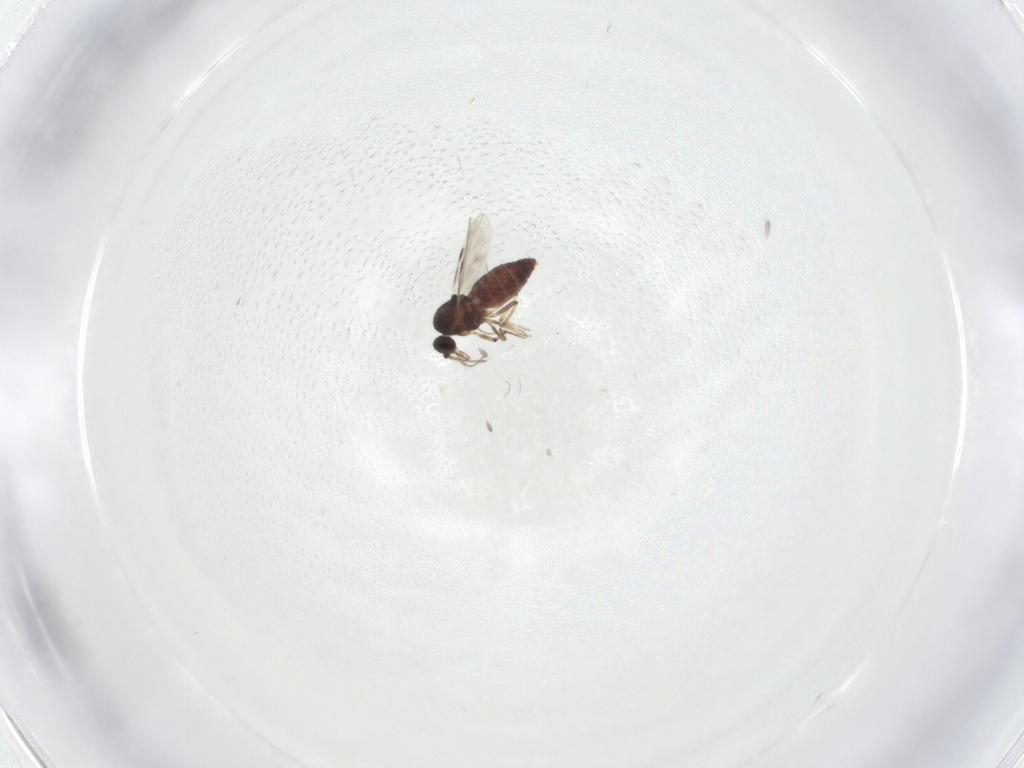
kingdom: Animalia
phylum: Arthropoda
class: Insecta
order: Diptera
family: Cecidomyiidae
